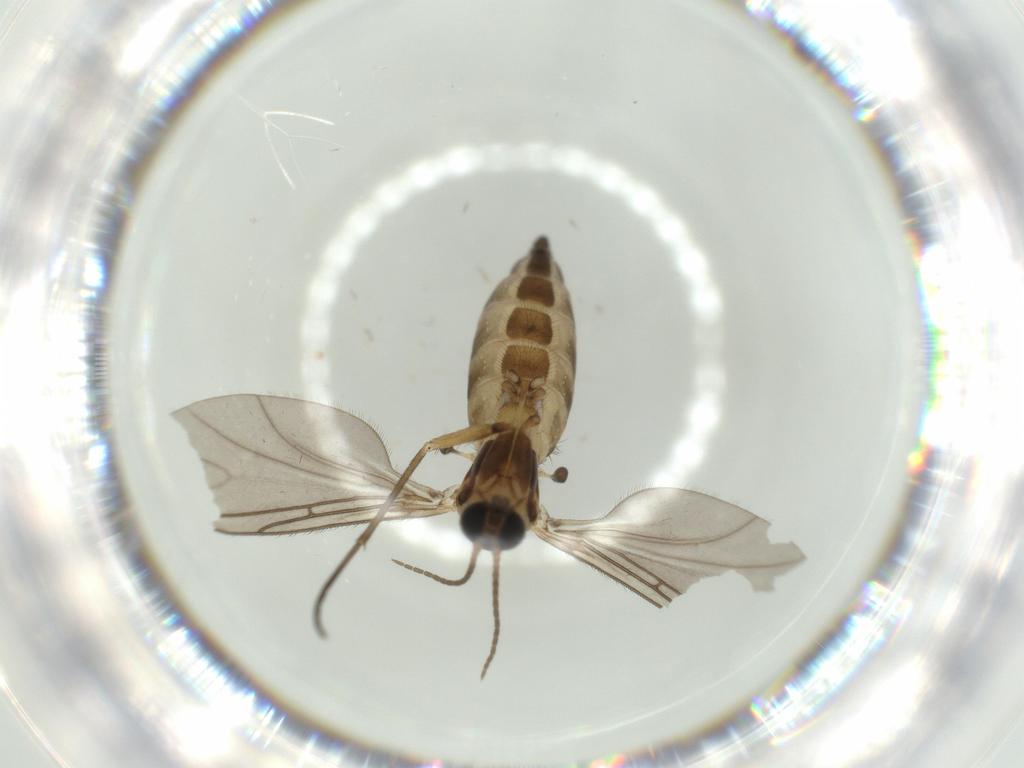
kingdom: Animalia
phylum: Arthropoda
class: Insecta
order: Diptera
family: Sciaridae
